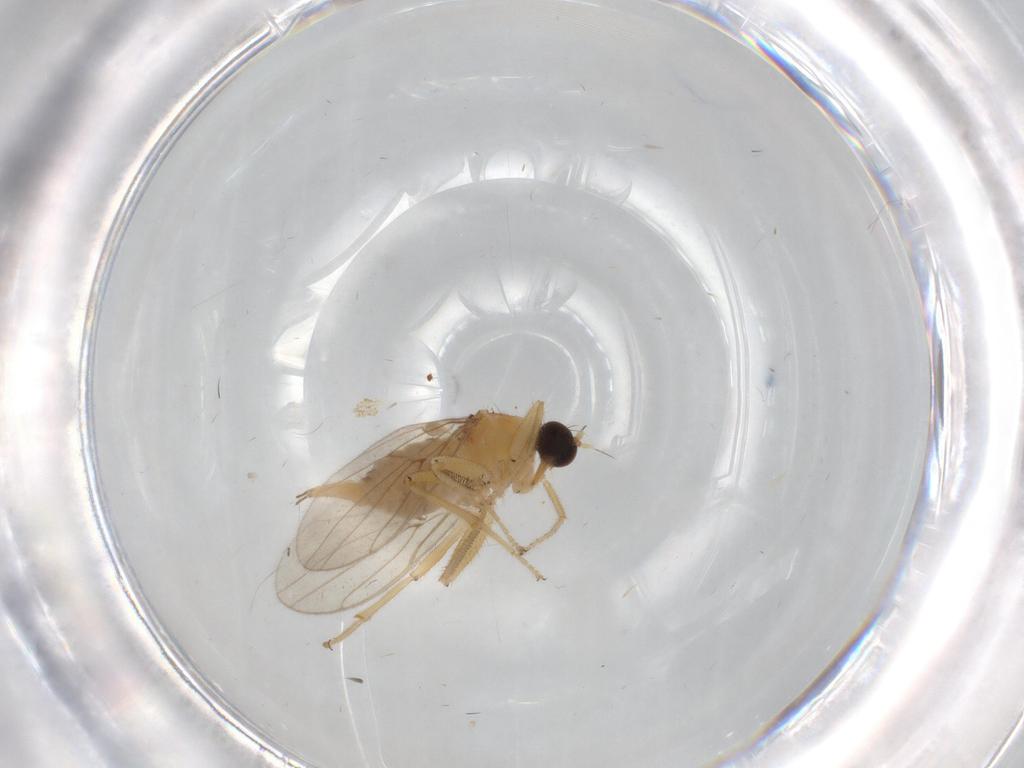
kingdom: Animalia
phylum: Arthropoda
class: Insecta
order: Diptera
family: Hybotidae
